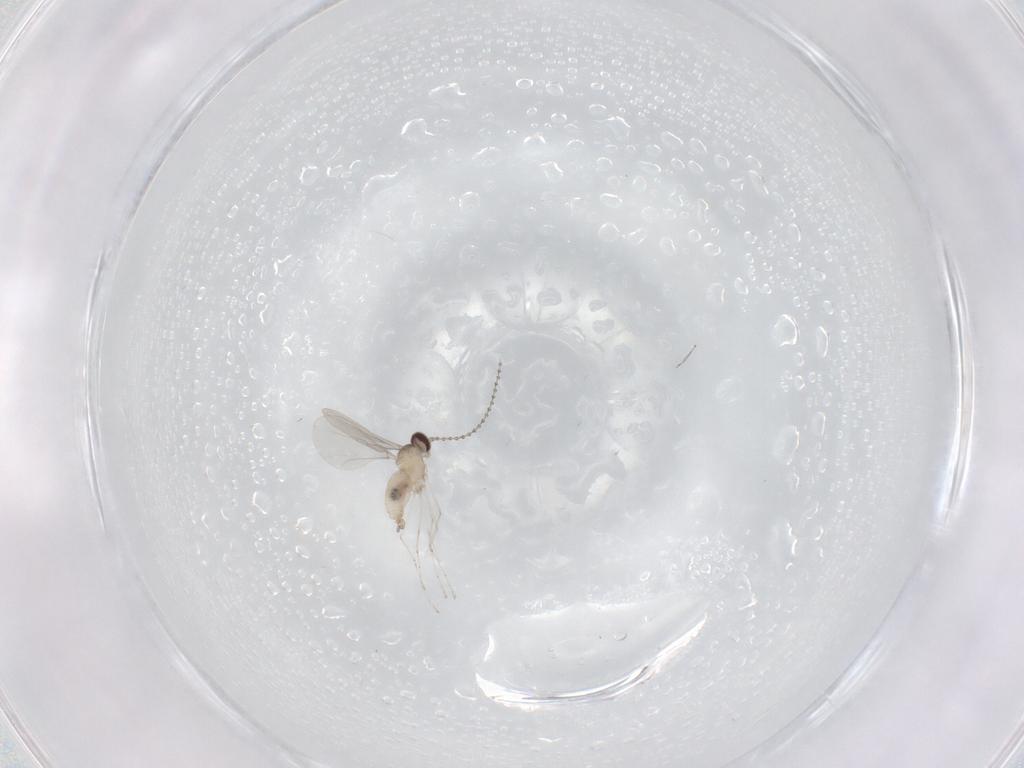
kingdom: Animalia
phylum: Arthropoda
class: Insecta
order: Diptera
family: Cecidomyiidae
